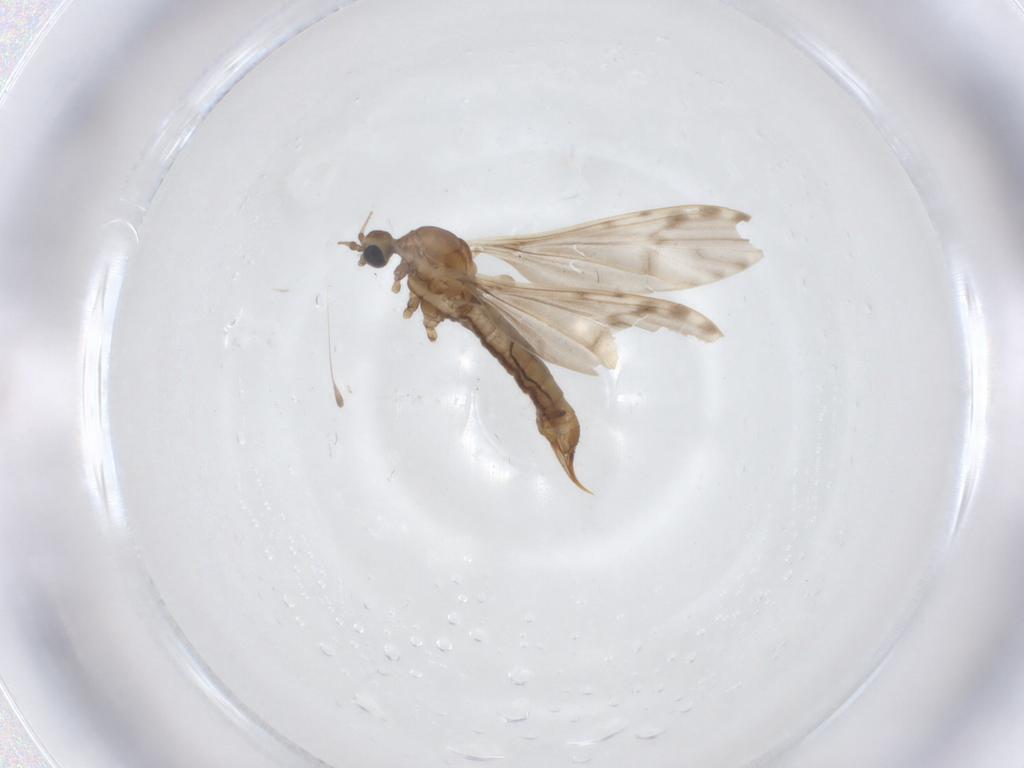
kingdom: Animalia
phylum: Arthropoda
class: Insecta
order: Diptera
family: Limoniidae
